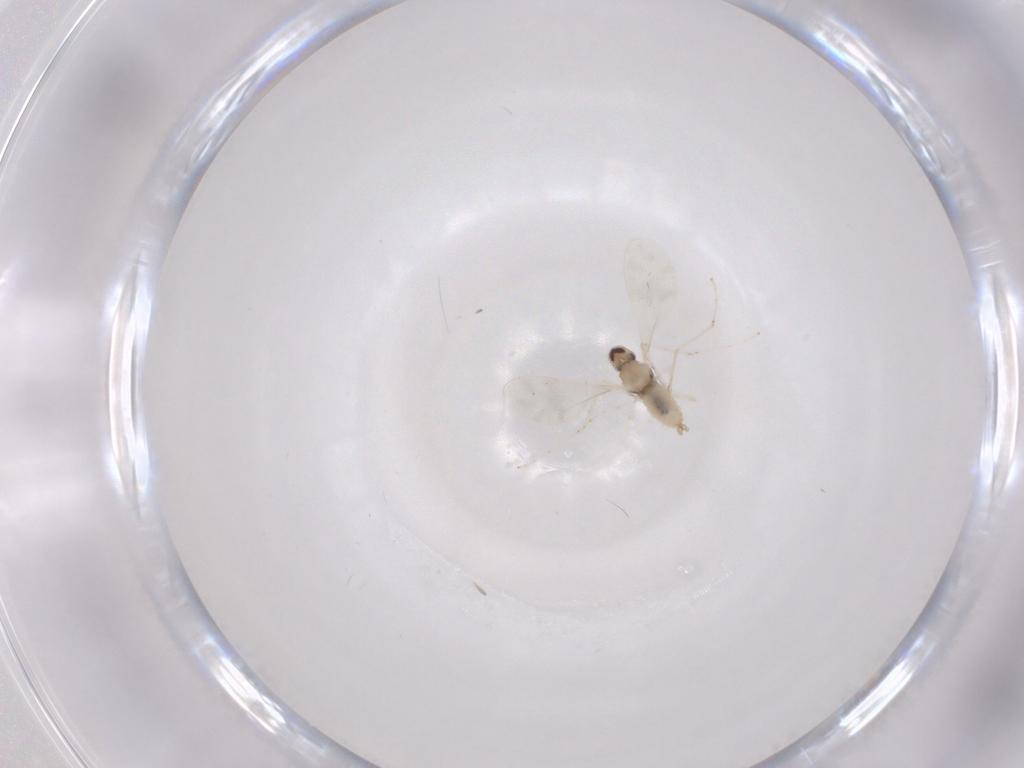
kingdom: Animalia
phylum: Arthropoda
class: Insecta
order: Diptera
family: Cecidomyiidae
